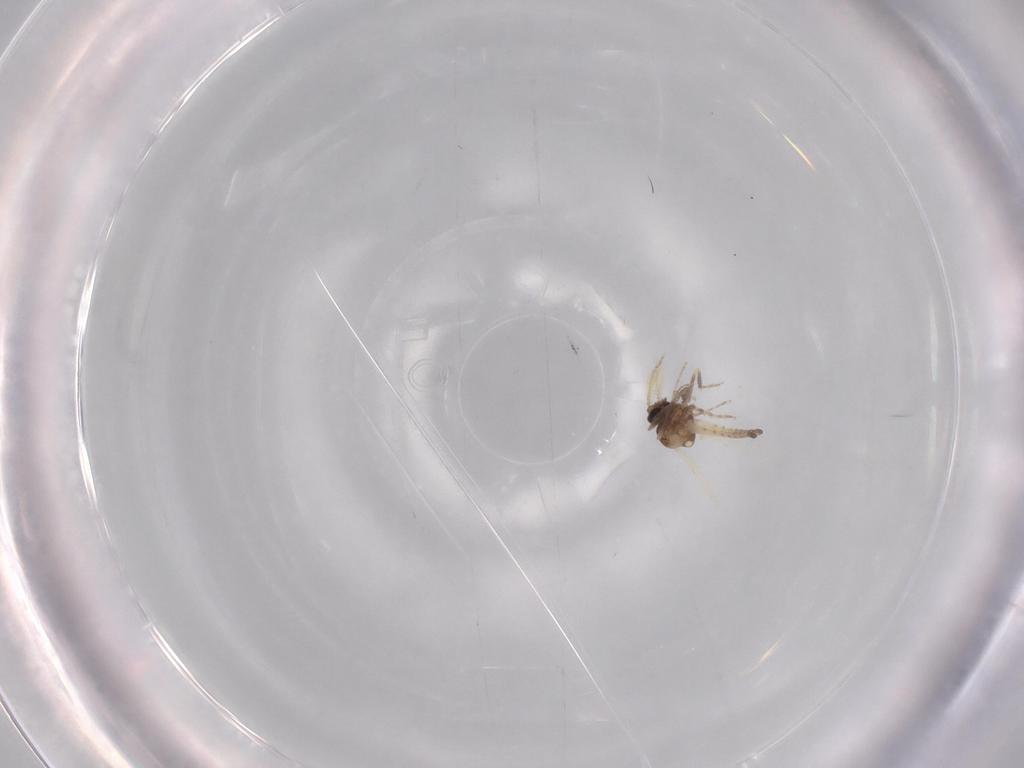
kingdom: Animalia
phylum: Arthropoda
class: Insecta
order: Diptera
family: Ceratopogonidae
